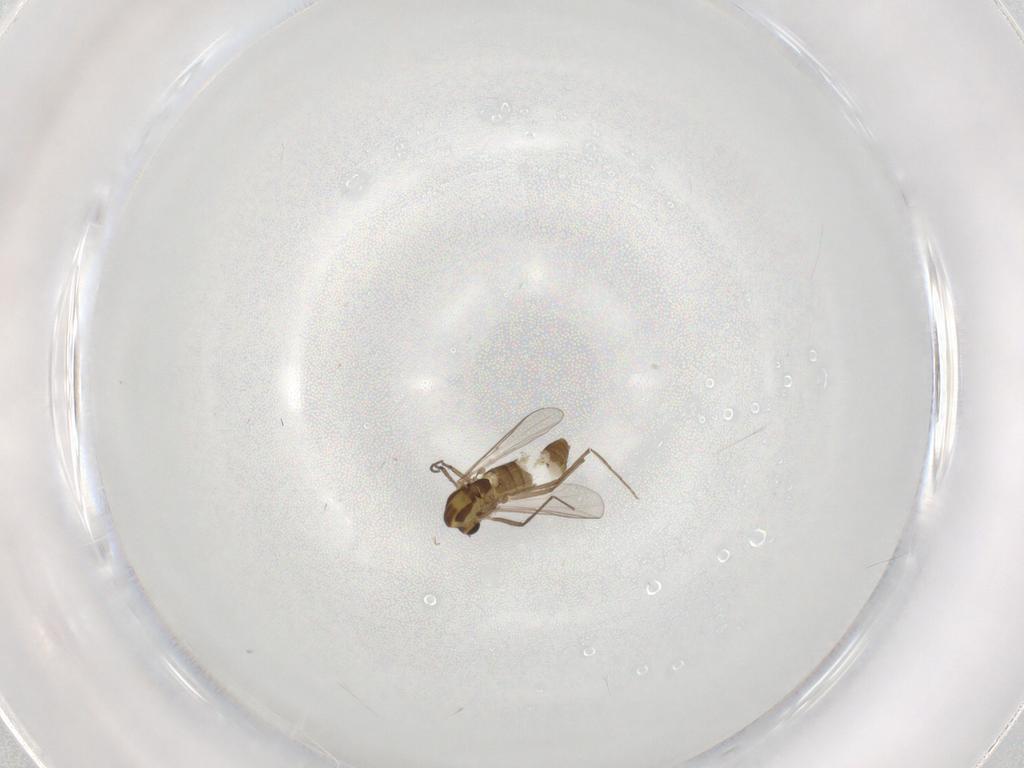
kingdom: Animalia
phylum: Arthropoda
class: Insecta
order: Diptera
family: Chironomidae
